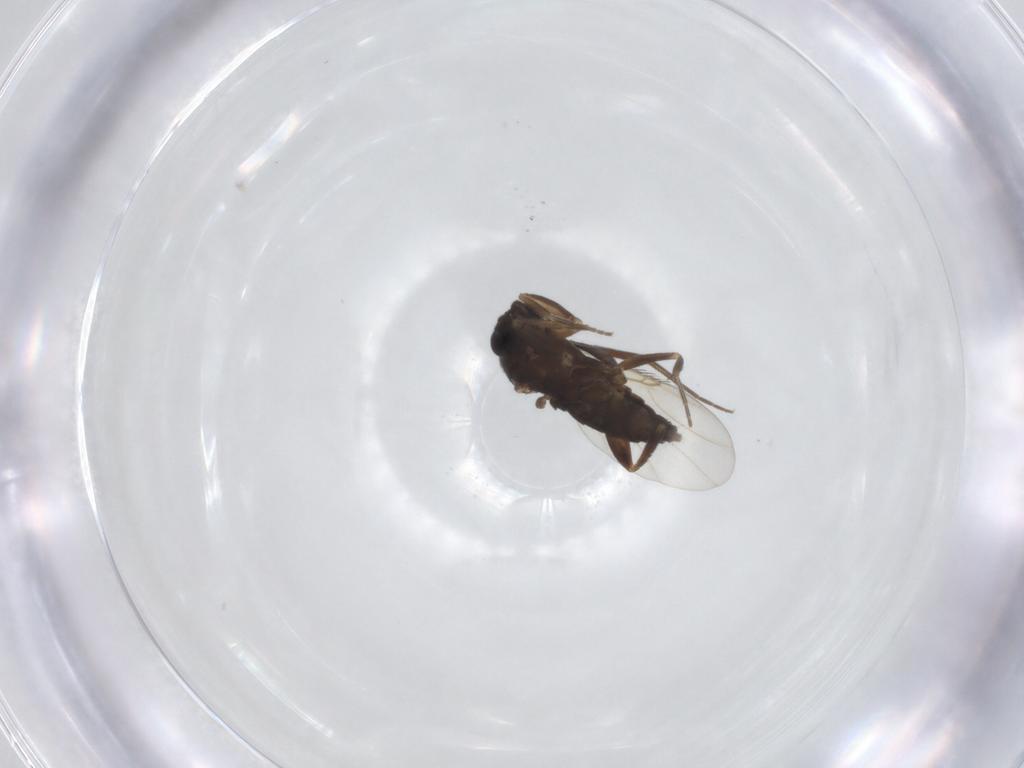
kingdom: Animalia
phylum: Arthropoda
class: Insecta
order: Diptera
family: Phoridae
